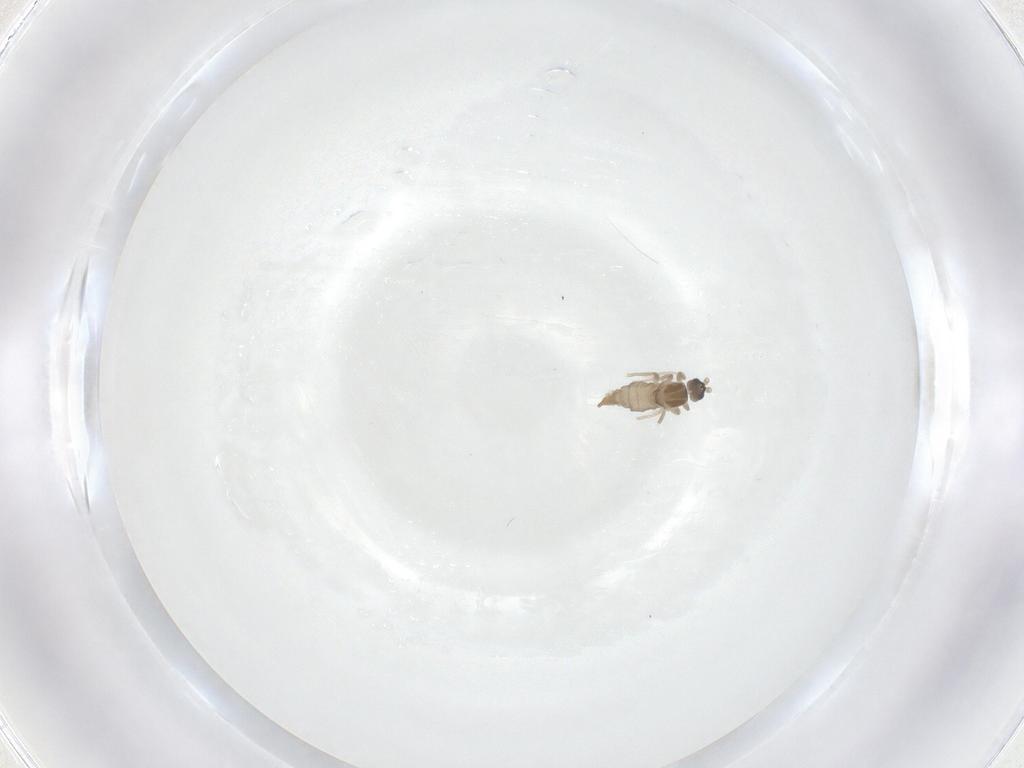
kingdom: Animalia
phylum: Arthropoda
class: Insecta
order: Diptera
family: Cecidomyiidae
